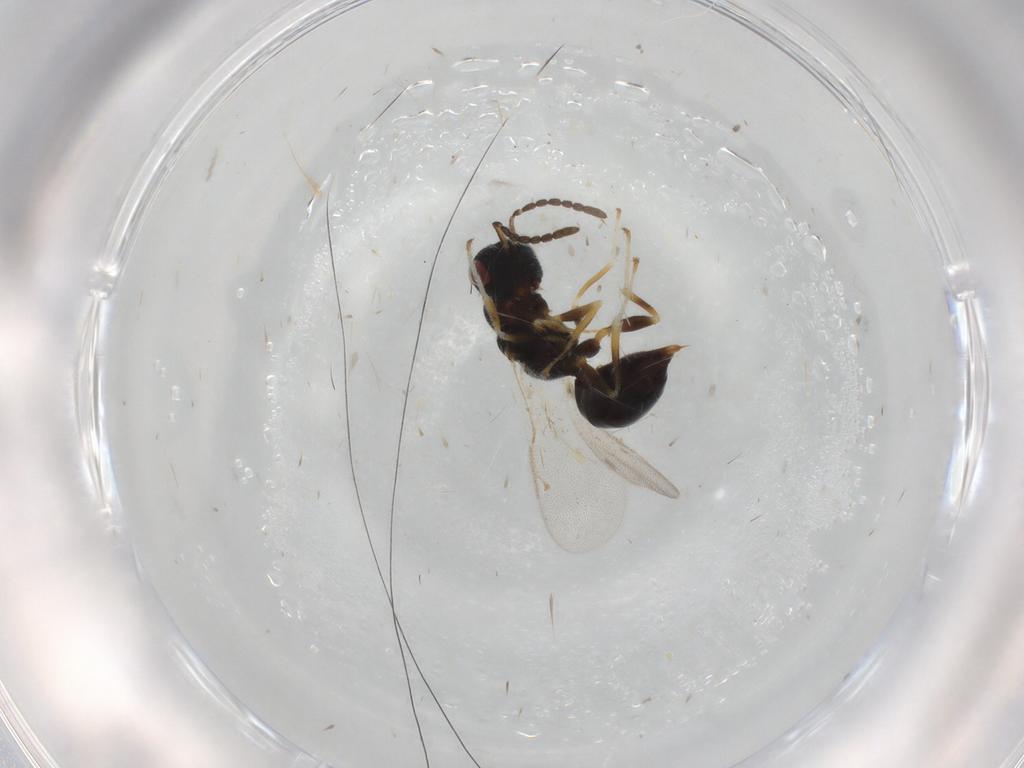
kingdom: Animalia
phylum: Arthropoda
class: Insecta
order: Hymenoptera
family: Eurytomidae
